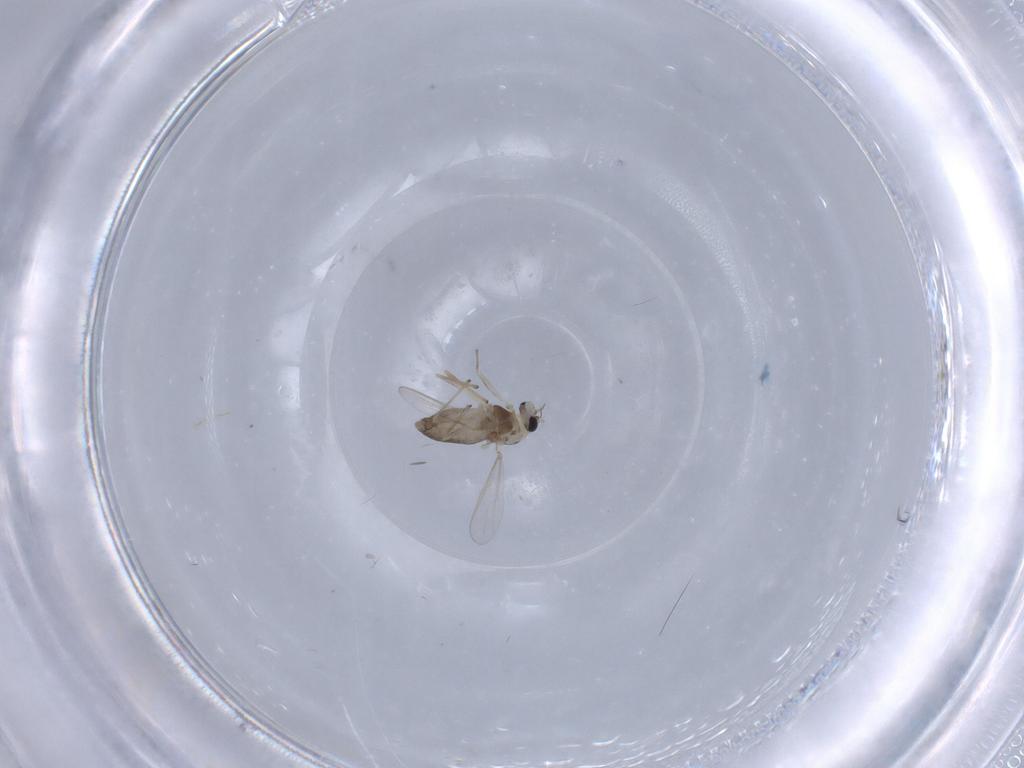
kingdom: Animalia
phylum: Arthropoda
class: Insecta
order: Diptera
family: Chironomidae
